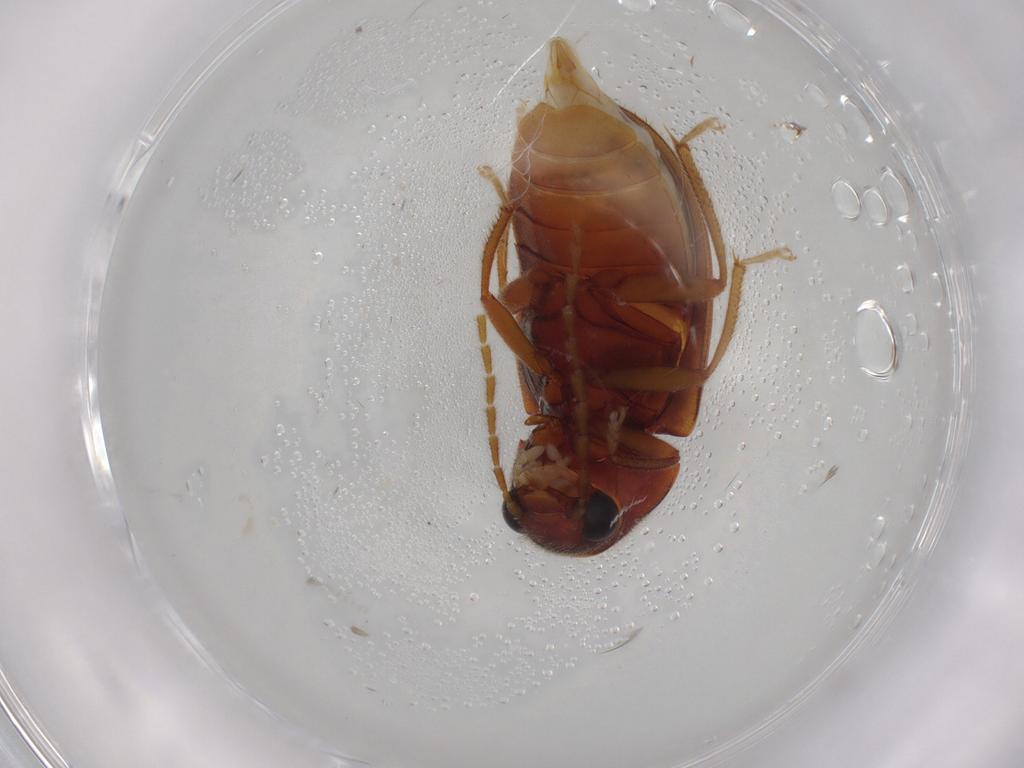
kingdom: Animalia
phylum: Arthropoda
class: Insecta
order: Coleoptera
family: Ptilodactylidae
